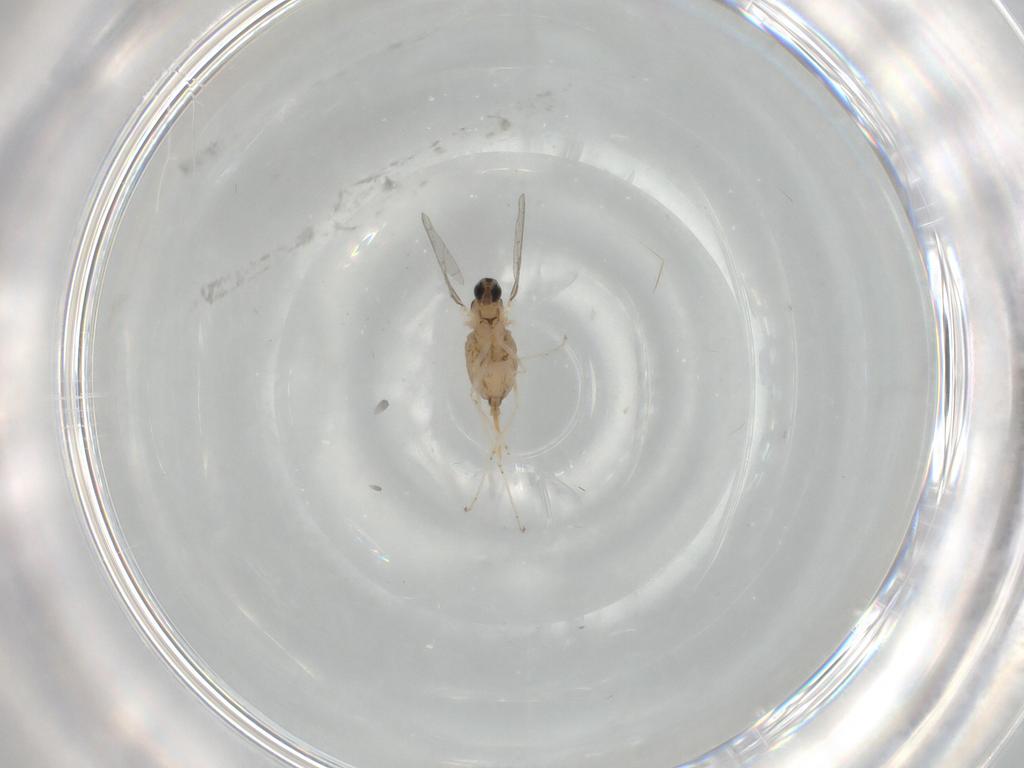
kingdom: Animalia
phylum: Arthropoda
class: Insecta
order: Diptera
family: Cecidomyiidae
